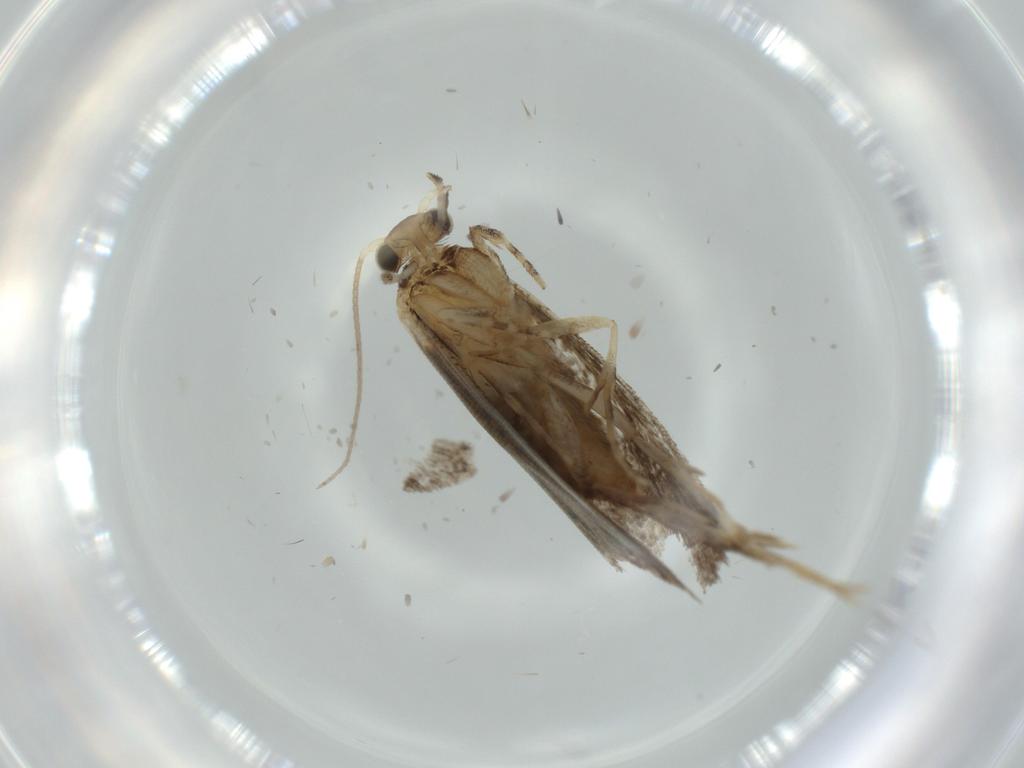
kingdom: Animalia
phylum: Arthropoda
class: Insecta
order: Lepidoptera
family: Tineidae
